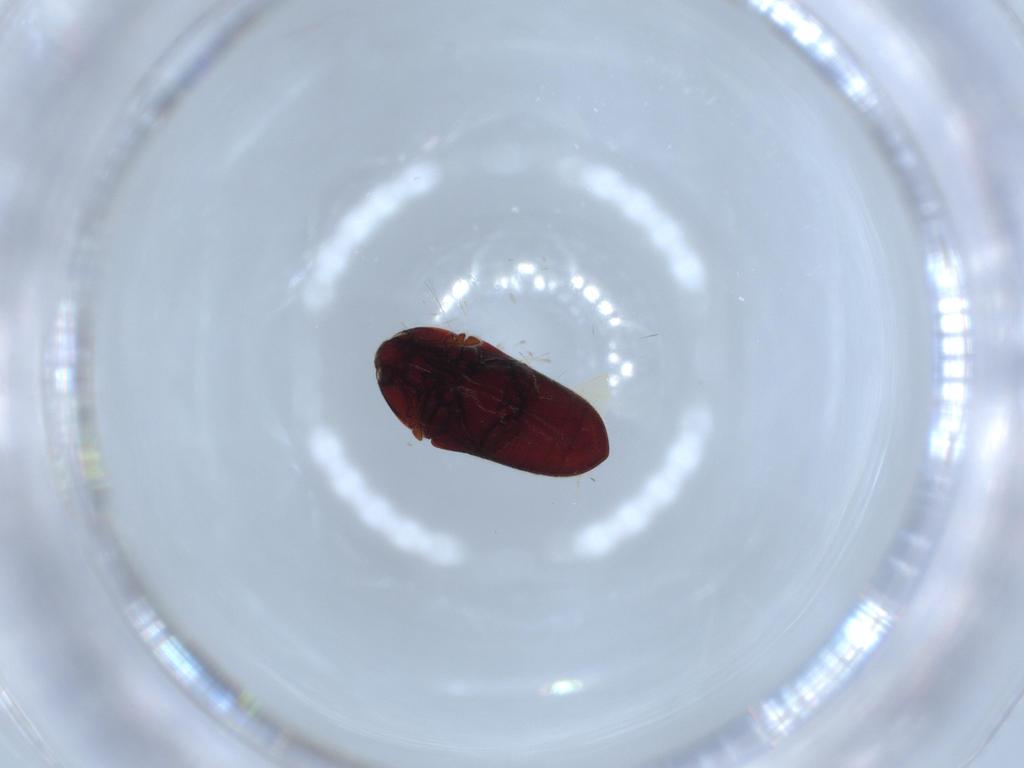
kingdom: Animalia
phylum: Arthropoda
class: Insecta
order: Coleoptera
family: Throscidae
